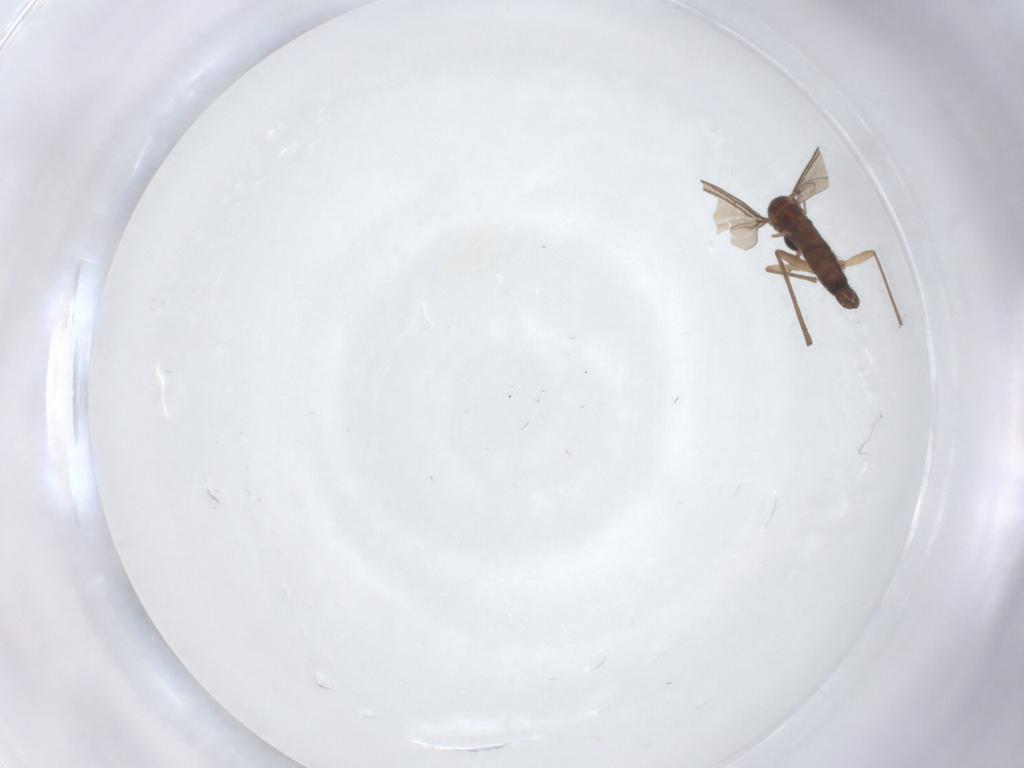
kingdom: Animalia
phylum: Arthropoda
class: Insecta
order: Diptera
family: Sciaridae
